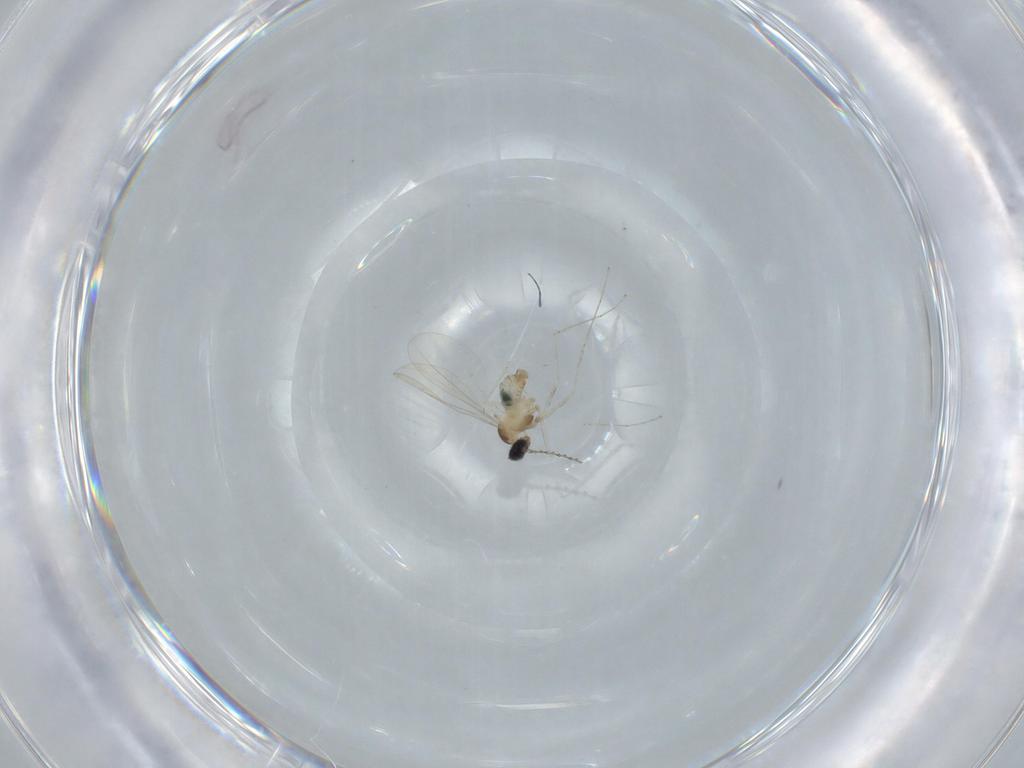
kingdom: Animalia
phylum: Arthropoda
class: Insecta
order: Diptera
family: Cecidomyiidae
